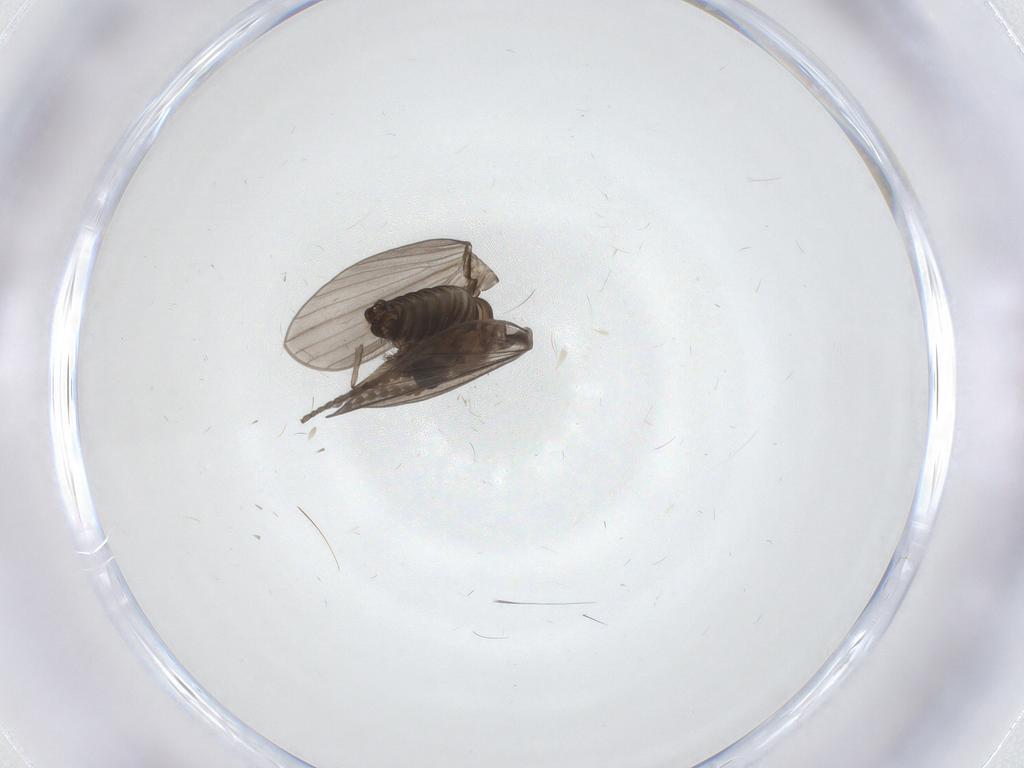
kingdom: Animalia
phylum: Arthropoda
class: Insecta
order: Diptera
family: Psychodidae
